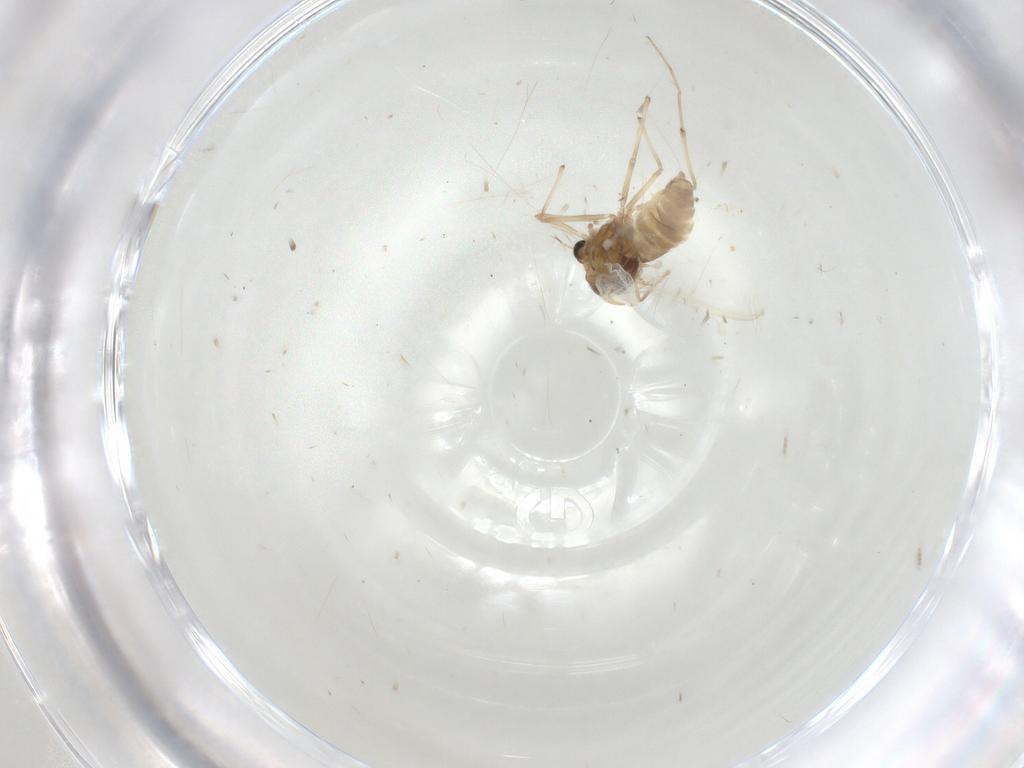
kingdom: Animalia
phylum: Arthropoda
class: Insecta
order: Diptera
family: Chironomidae
